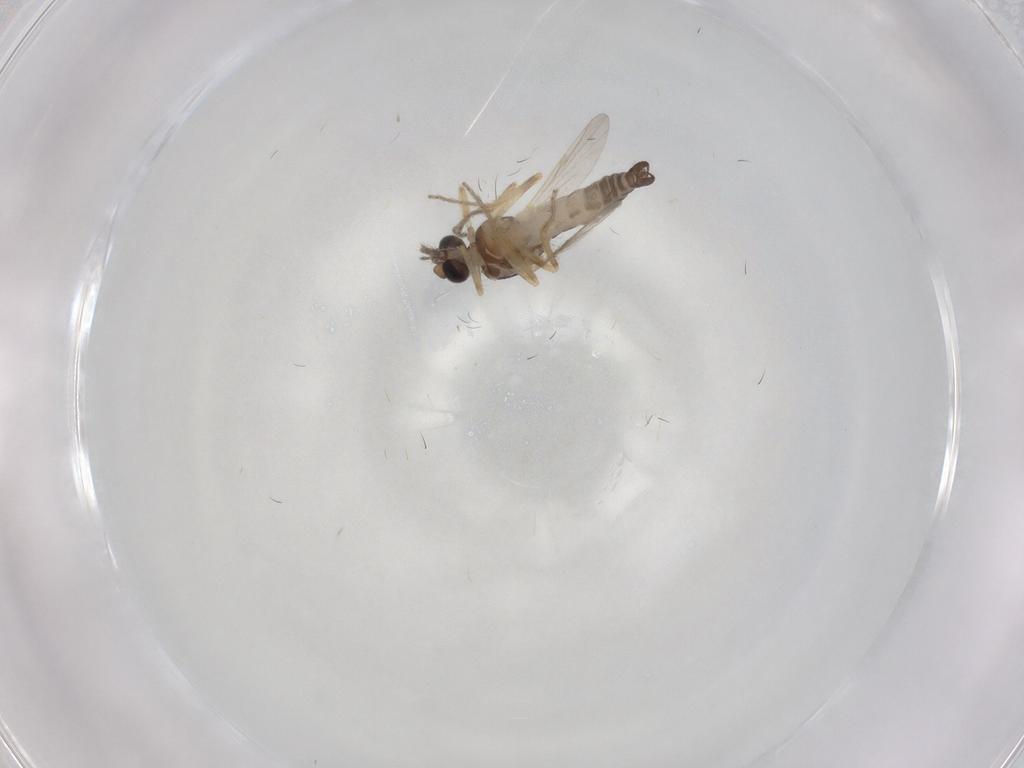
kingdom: Animalia
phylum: Arthropoda
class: Insecta
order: Diptera
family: Ceratopogonidae
